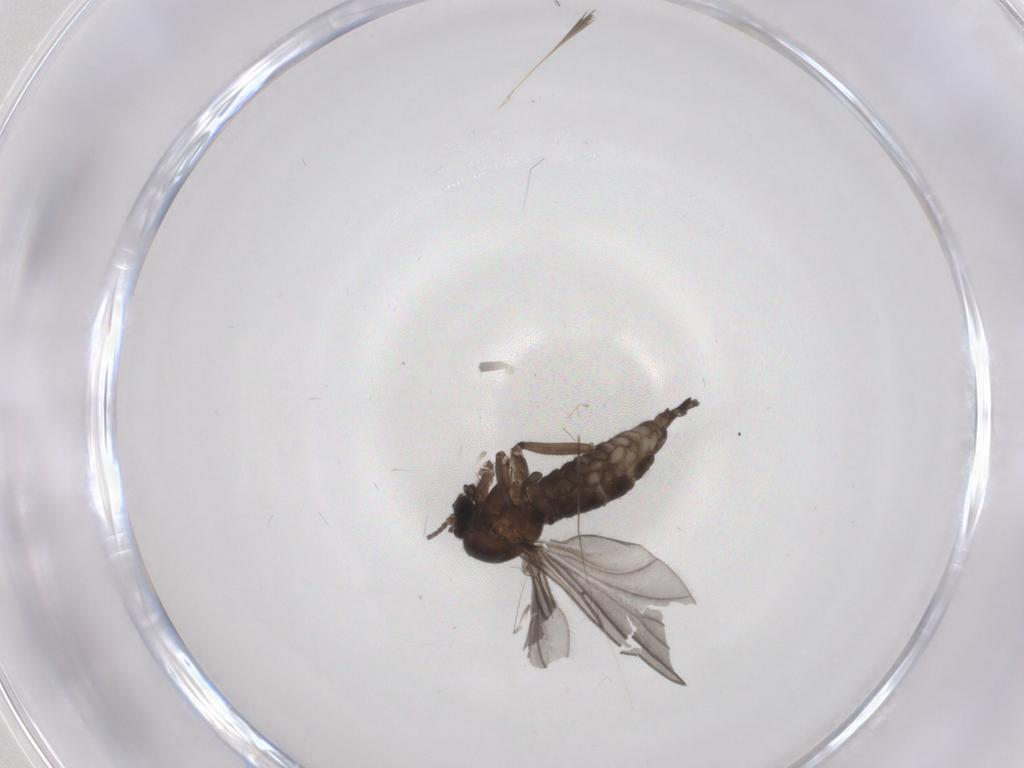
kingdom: Animalia
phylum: Arthropoda
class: Insecta
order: Diptera
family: Sciaridae
